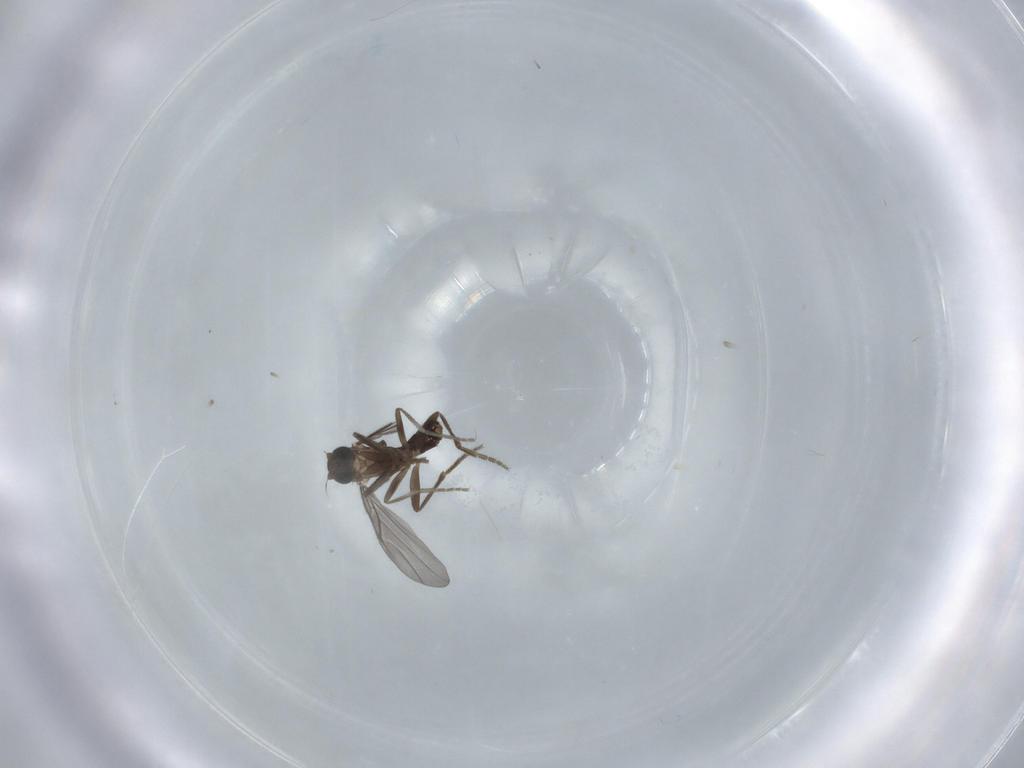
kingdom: Animalia
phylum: Arthropoda
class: Insecta
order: Diptera
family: Phoridae
